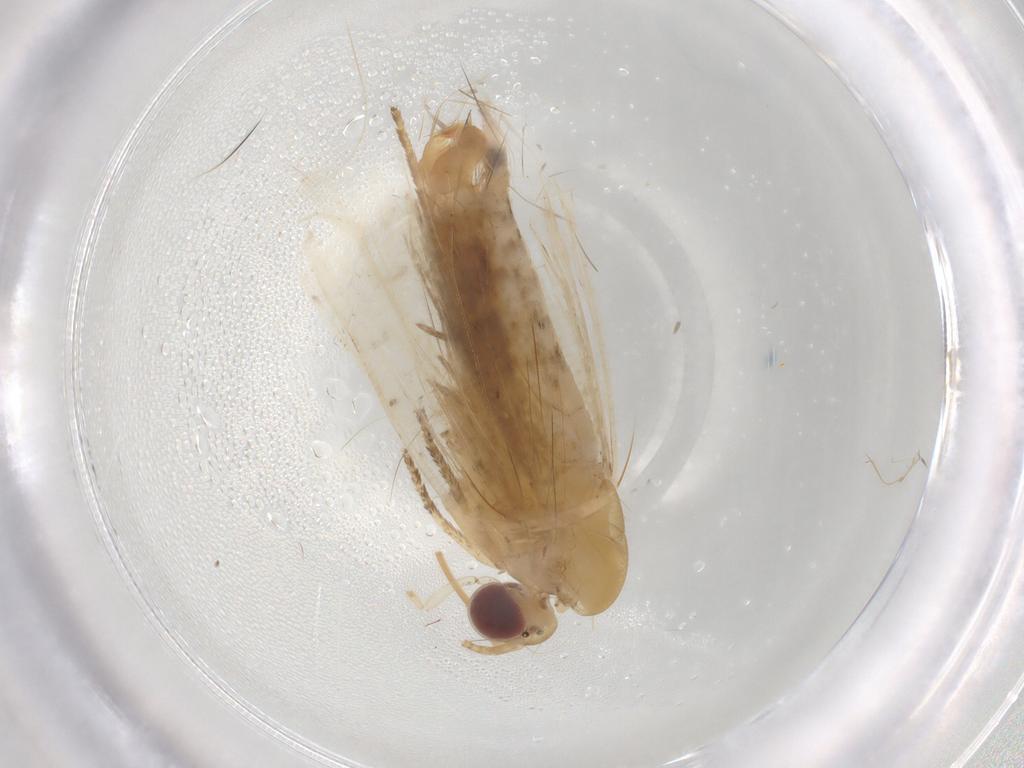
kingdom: Animalia
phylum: Arthropoda
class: Insecta
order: Lepidoptera
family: Erebidae
